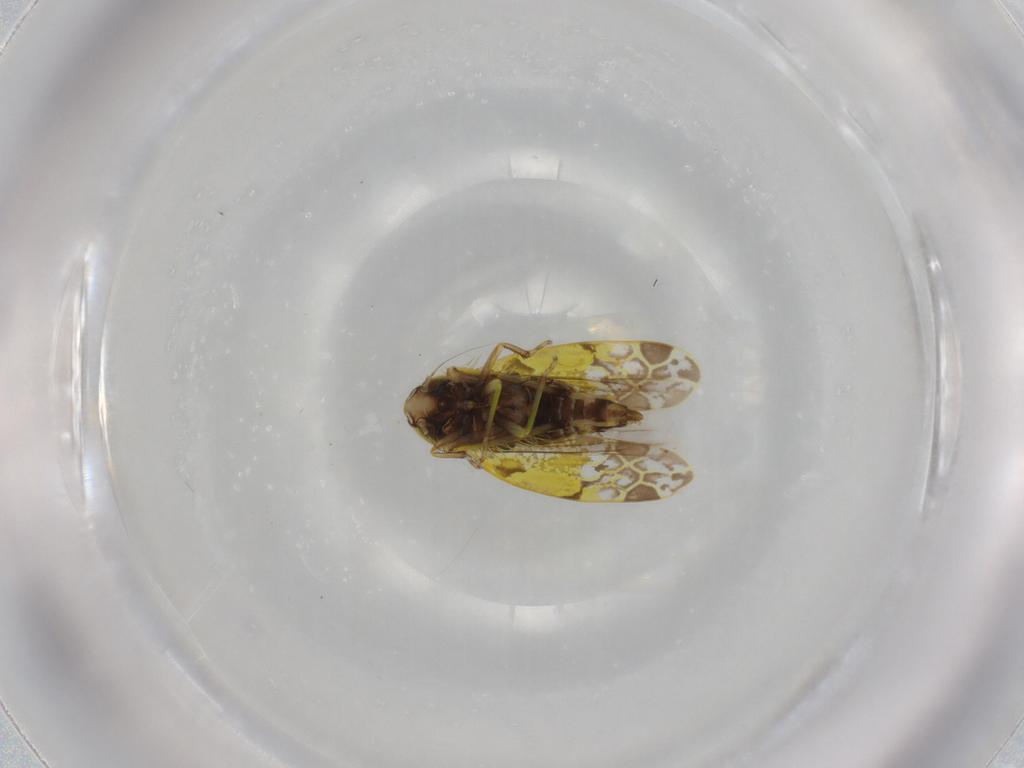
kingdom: Animalia
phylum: Arthropoda
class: Insecta
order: Hemiptera
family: Cicadellidae
